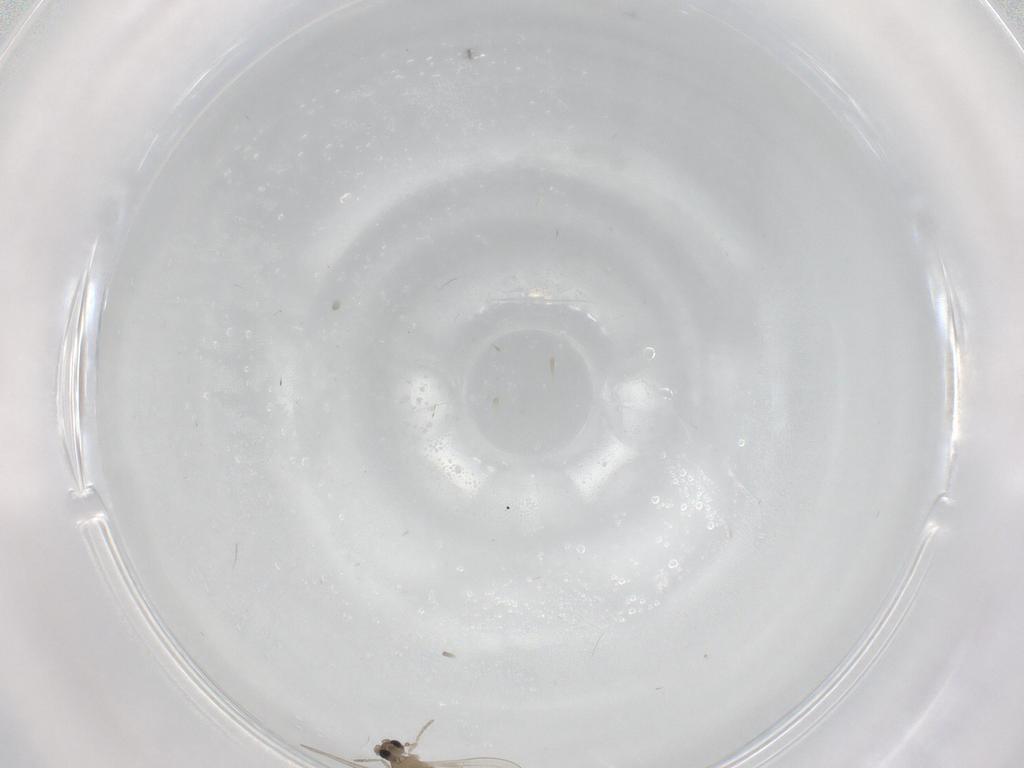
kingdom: Animalia
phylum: Arthropoda
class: Insecta
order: Diptera
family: Cecidomyiidae
